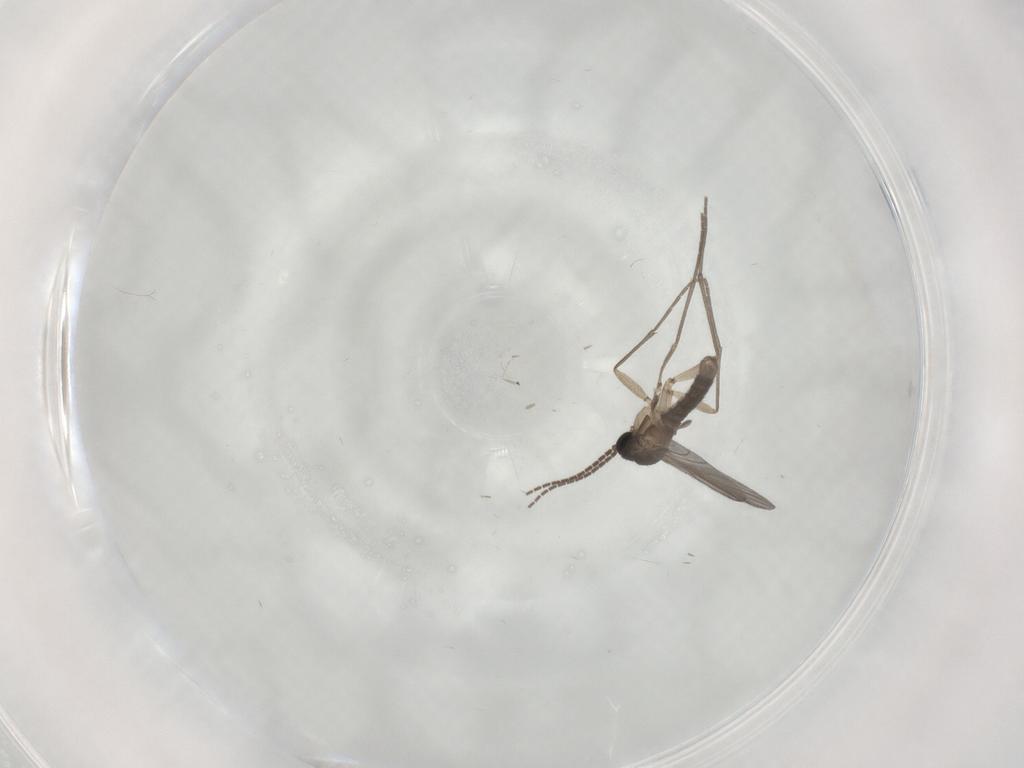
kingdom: Animalia
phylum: Arthropoda
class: Insecta
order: Diptera
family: Sciaridae
